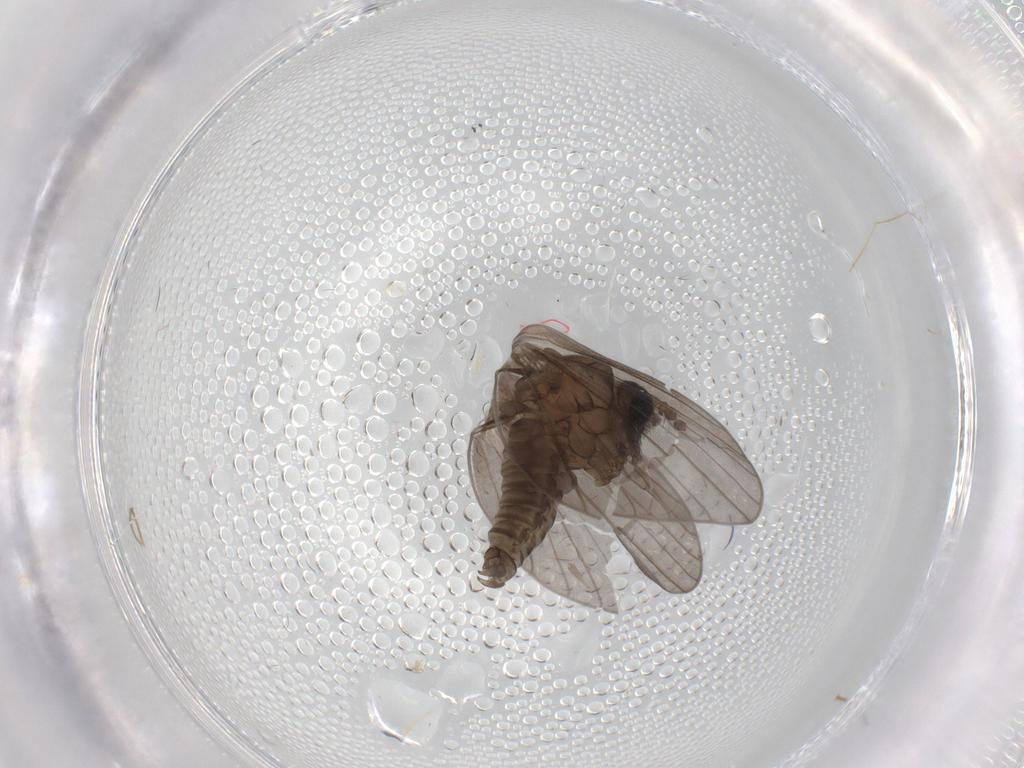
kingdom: Animalia
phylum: Arthropoda
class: Insecta
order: Diptera
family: Psychodidae
